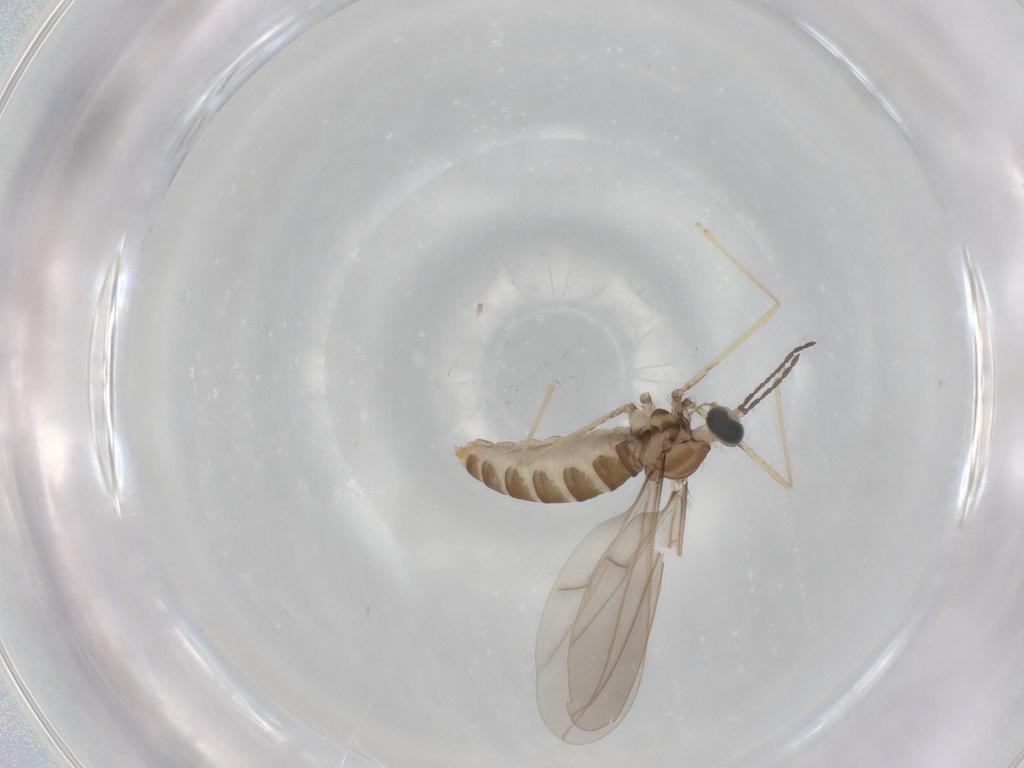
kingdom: Animalia
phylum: Arthropoda
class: Insecta
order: Diptera
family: Cecidomyiidae
